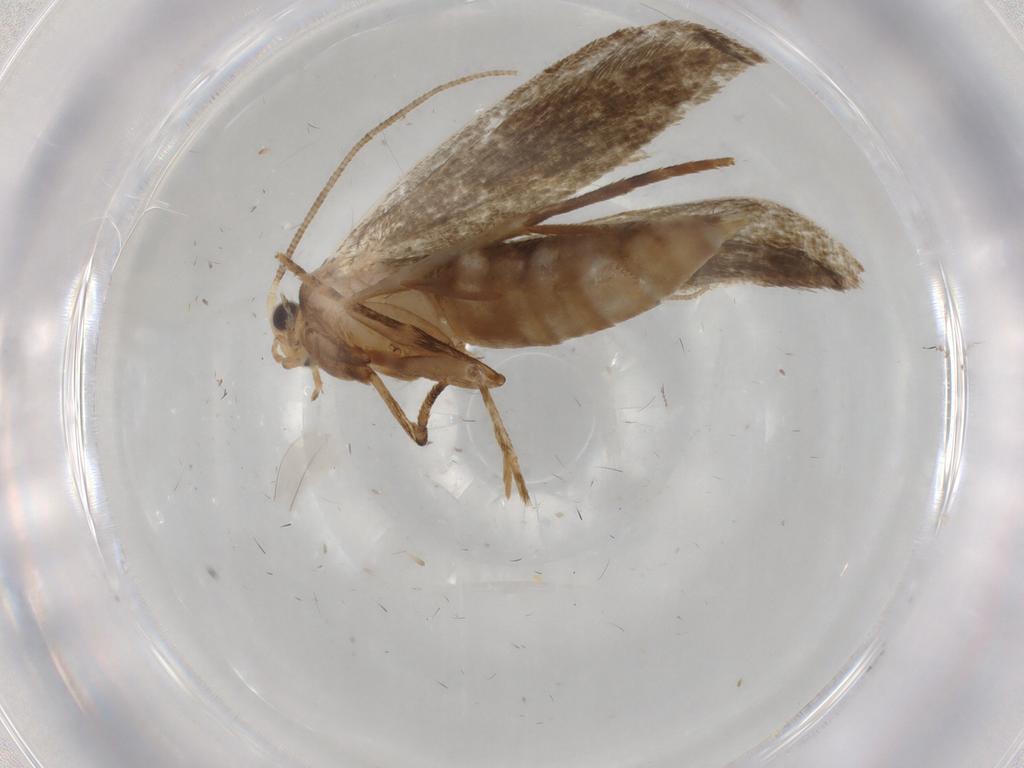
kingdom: Animalia
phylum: Arthropoda
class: Insecta
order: Lepidoptera
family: Tineidae
